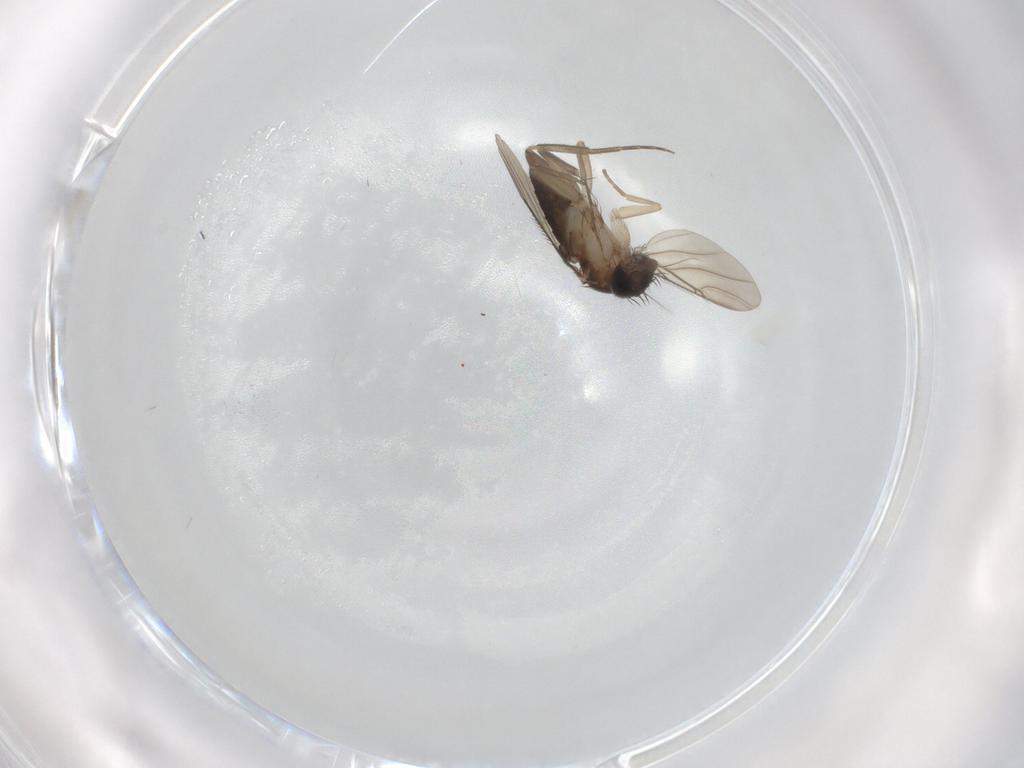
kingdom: Animalia
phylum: Arthropoda
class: Insecta
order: Diptera
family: Phoridae
